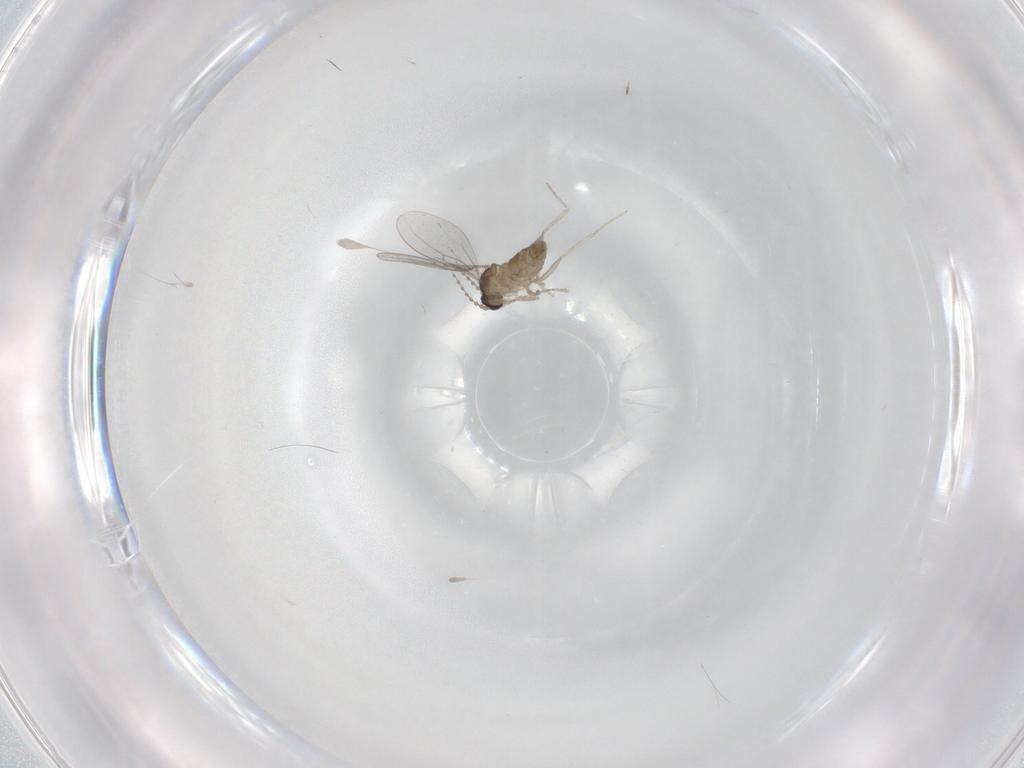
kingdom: Animalia
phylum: Arthropoda
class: Insecta
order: Diptera
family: Cecidomyiidae
